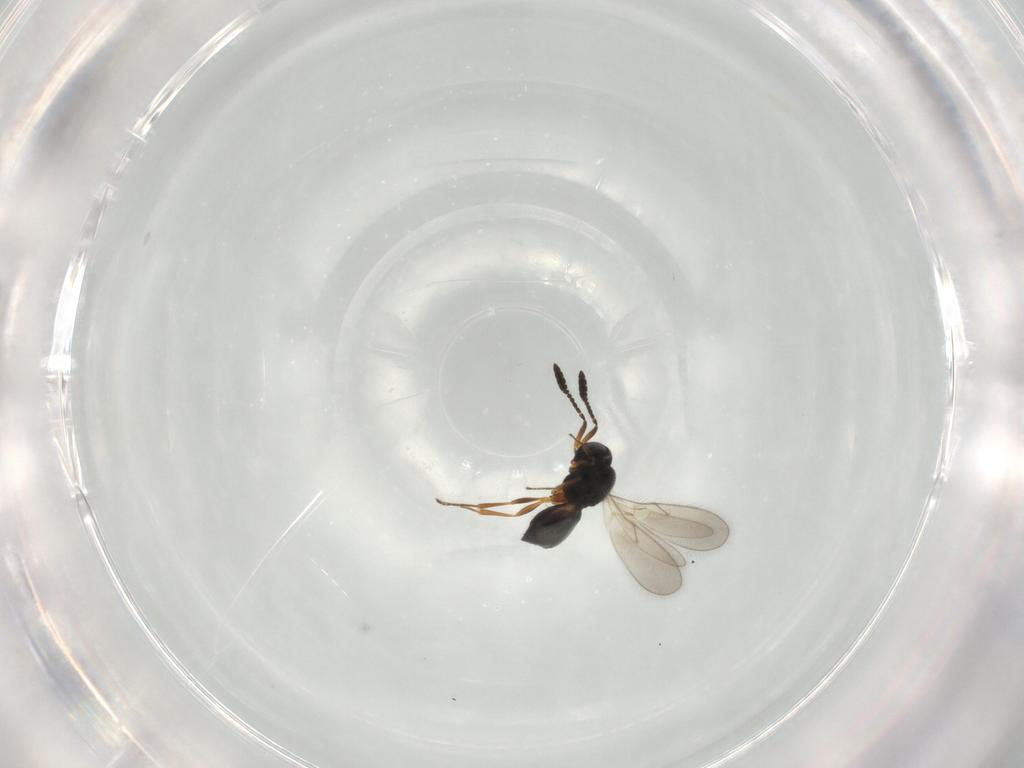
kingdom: Animalia
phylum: Arthropoda
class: Insecta
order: Hymenoptera
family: Scelionidae
